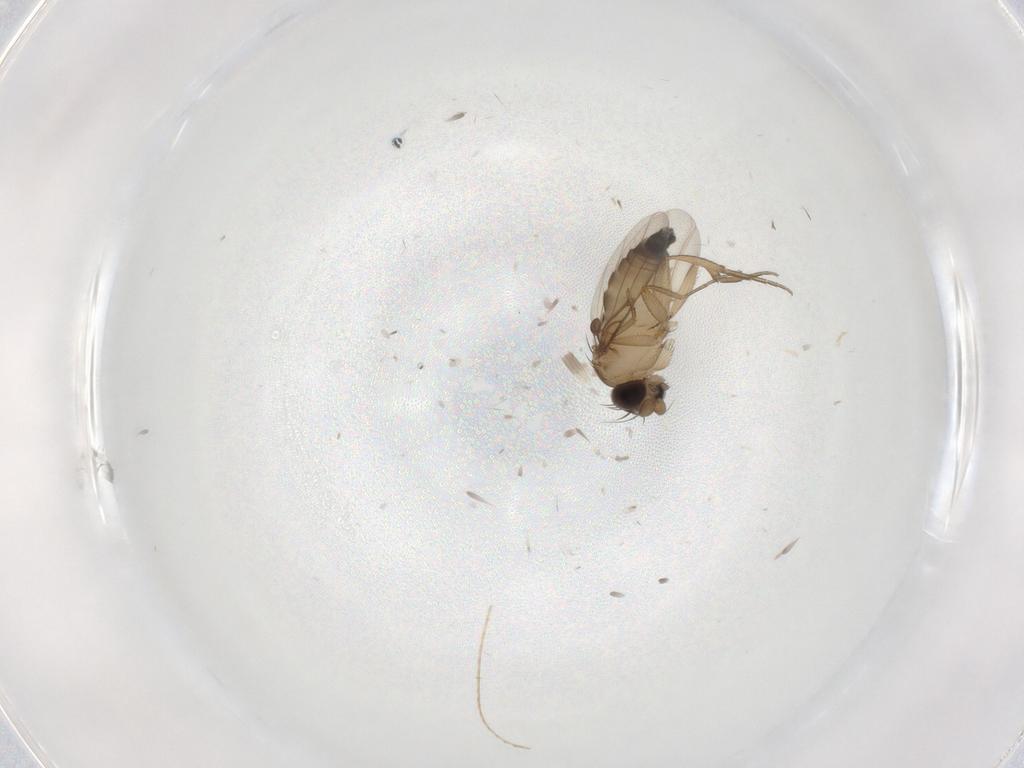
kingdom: Animalia
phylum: Arthropoda
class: Insecta
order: Diptera
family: Phoridae
